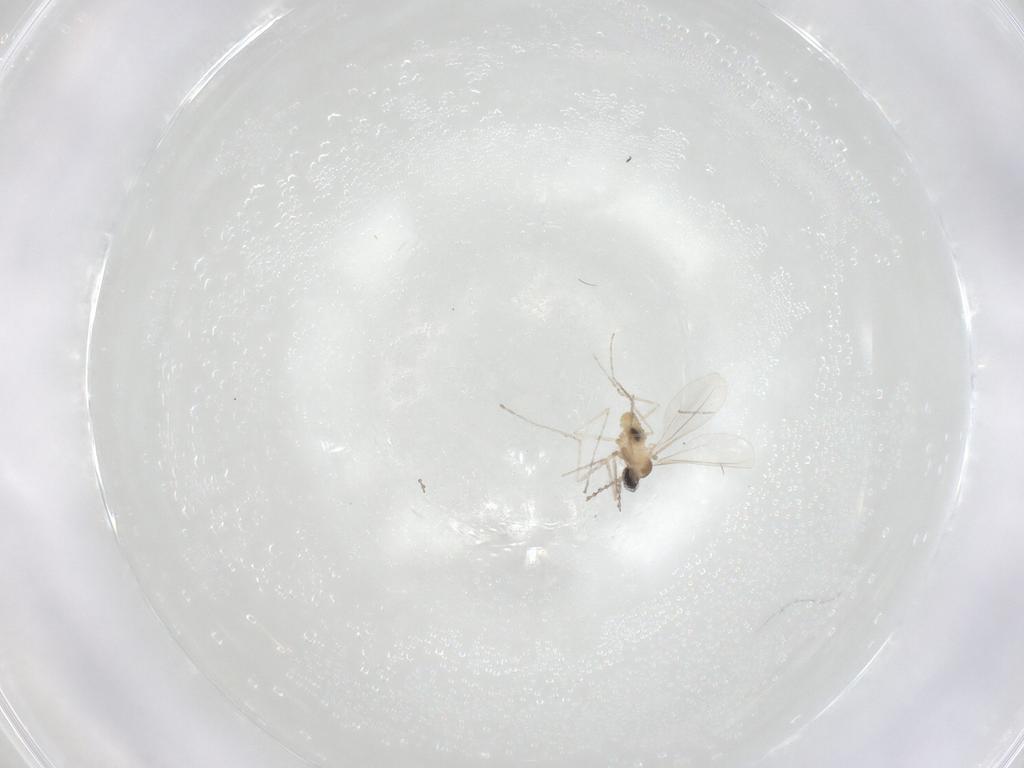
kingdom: Animalia
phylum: Arthropoda
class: Insecta
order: Diptera
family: Cecidomyiidae
